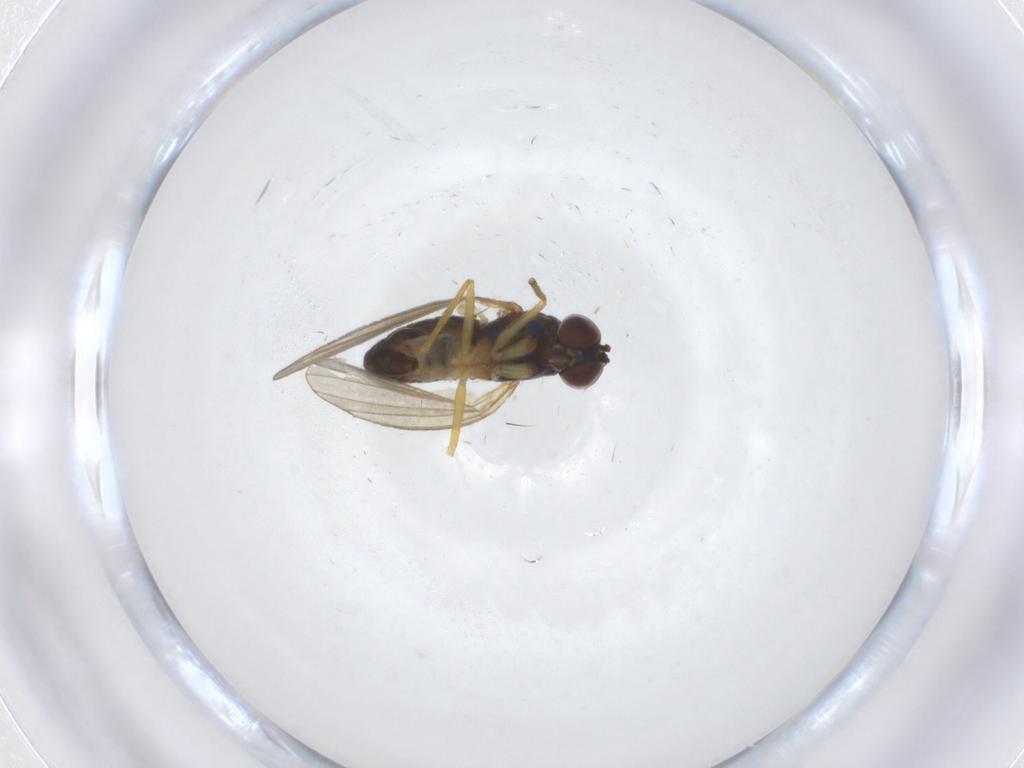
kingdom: Animalia
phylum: Arthropoda
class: Insecta
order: Diptera
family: Dolichopodidae
